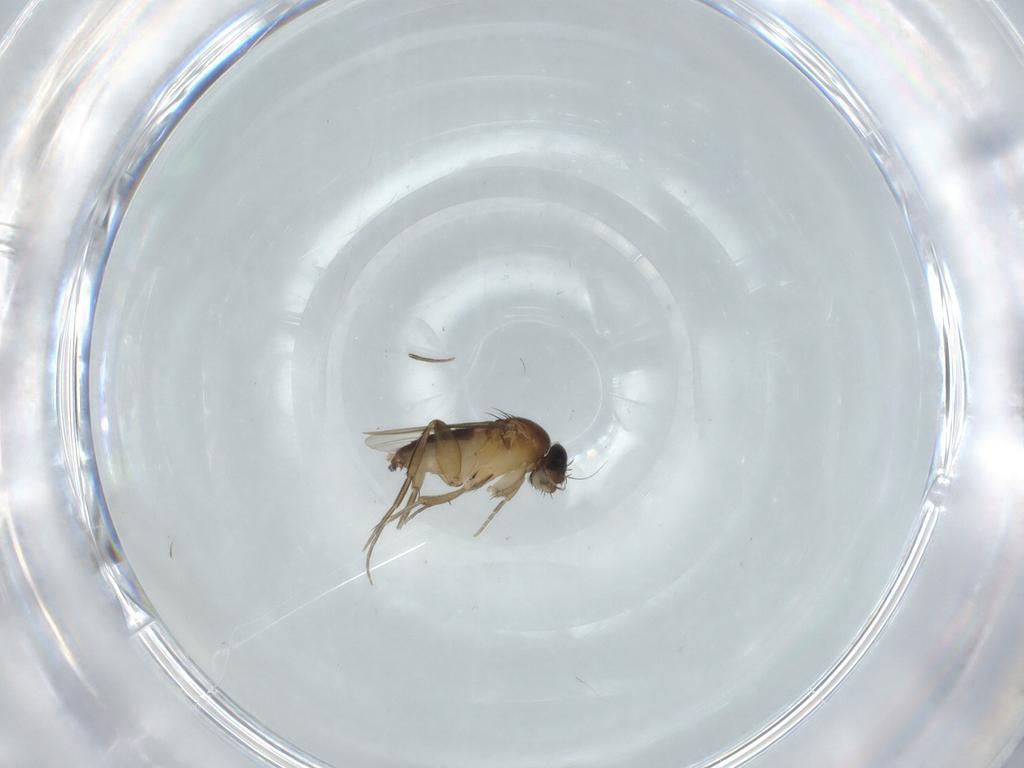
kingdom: Animalia
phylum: Arthropoda
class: Insecta
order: Diptera
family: Phoridae
